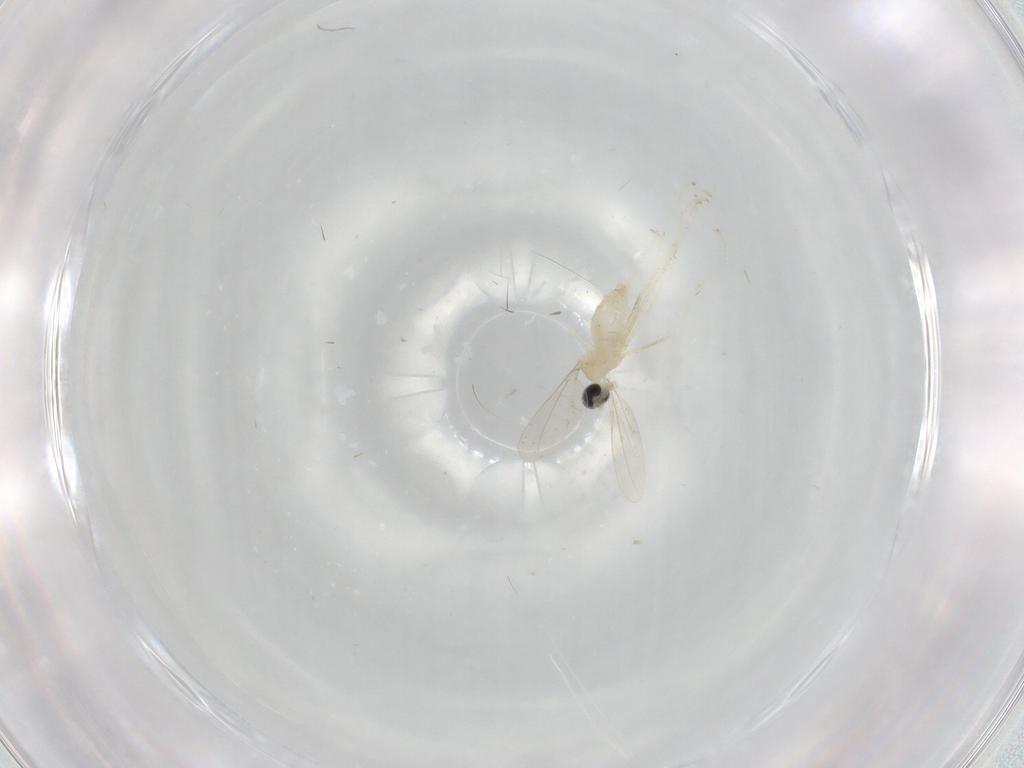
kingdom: Animalia
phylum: Arthropoda
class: Insecta
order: Diptera
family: Cecidomyiidae
